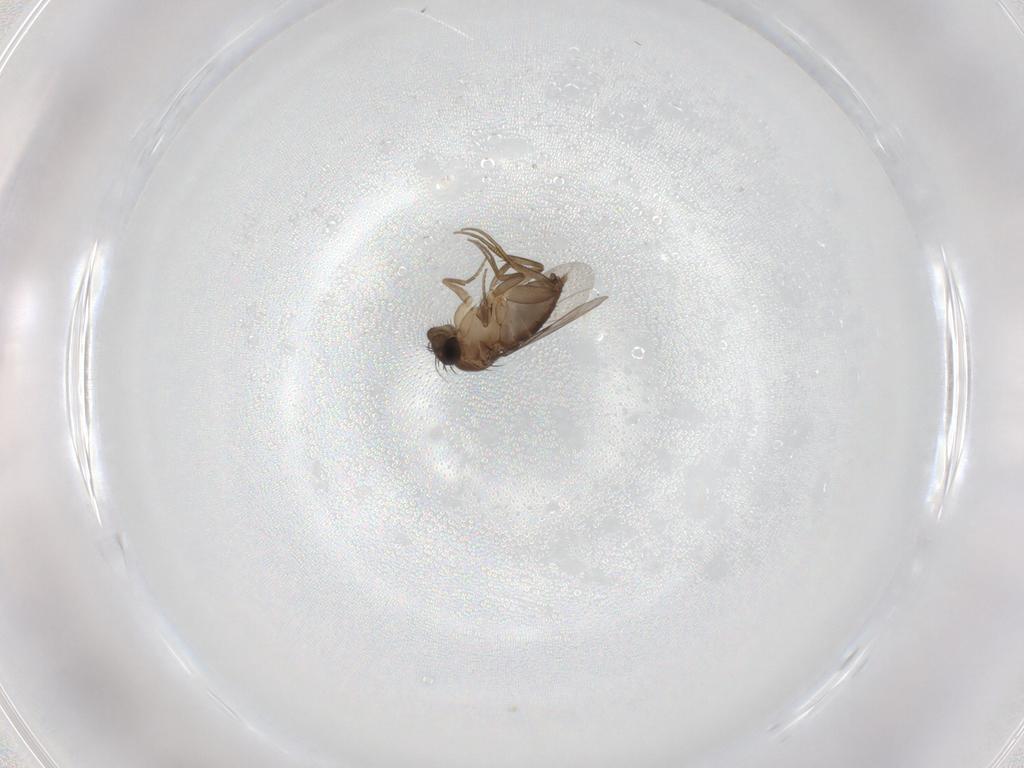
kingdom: Animalia
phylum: Arthropoda
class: Insecta
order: Diptera
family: Phoridae
